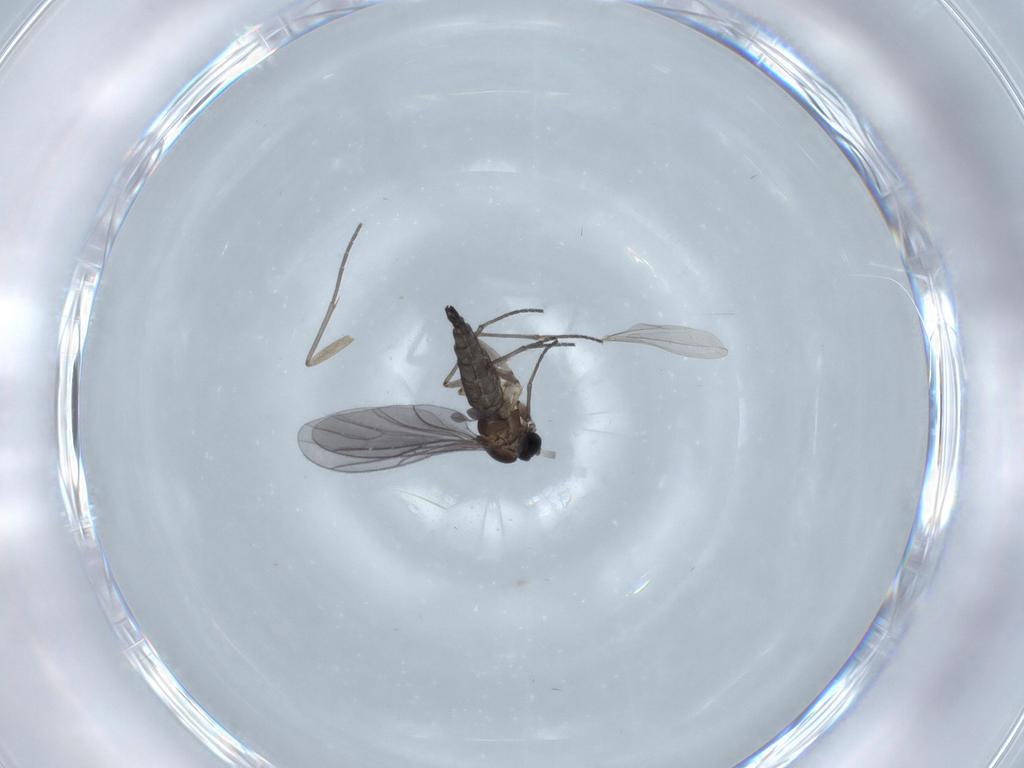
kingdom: Animalia
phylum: Arthropoda
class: Insecta
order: Diptera
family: Sciaridae
